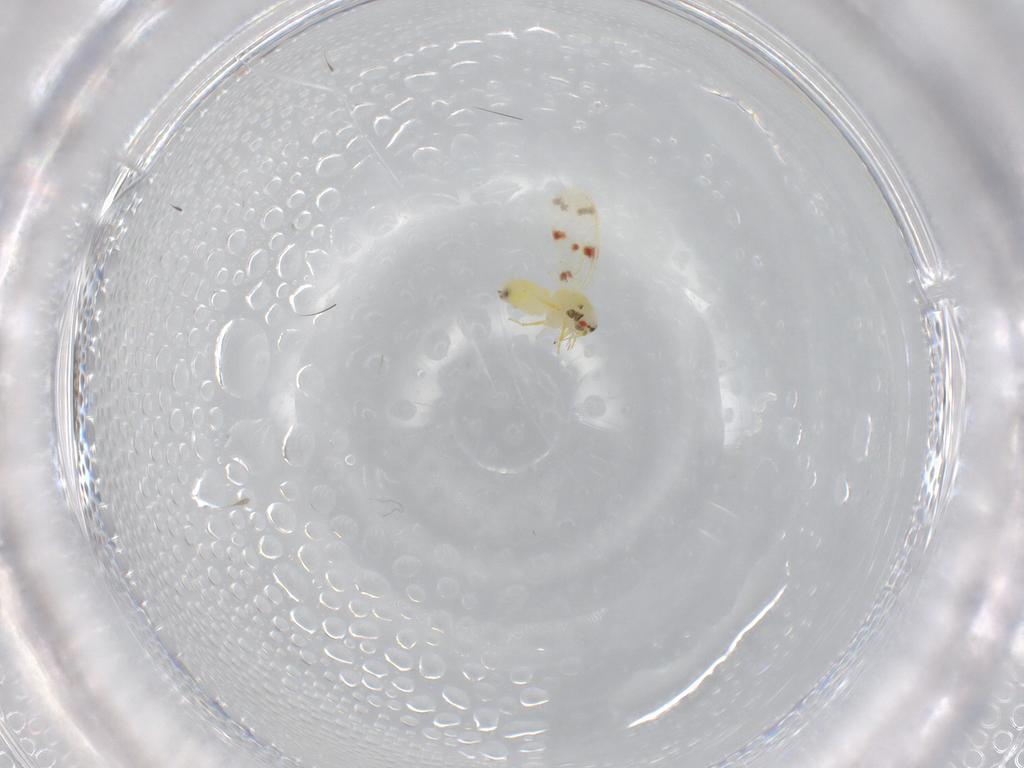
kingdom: Animalia
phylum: Arthropoda
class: Insecta
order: Hemiptera
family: Aleyrodidae
